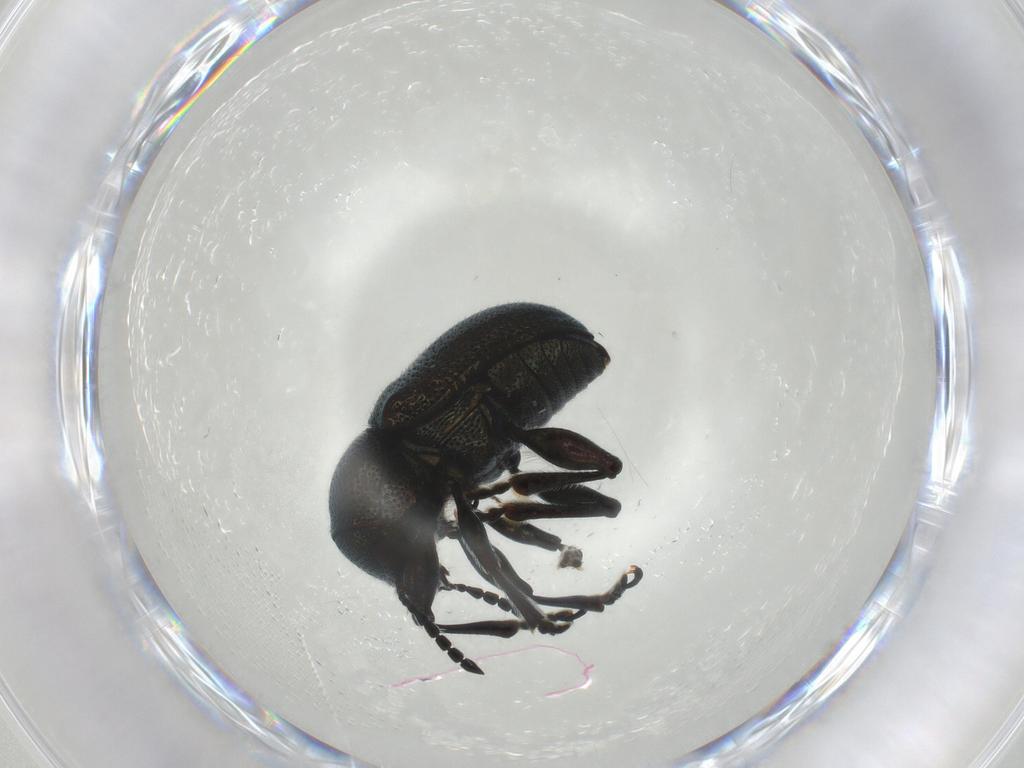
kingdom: Animalia
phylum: Arthropoda
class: Insecta
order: Coleoptera
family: Chrysomelidae
